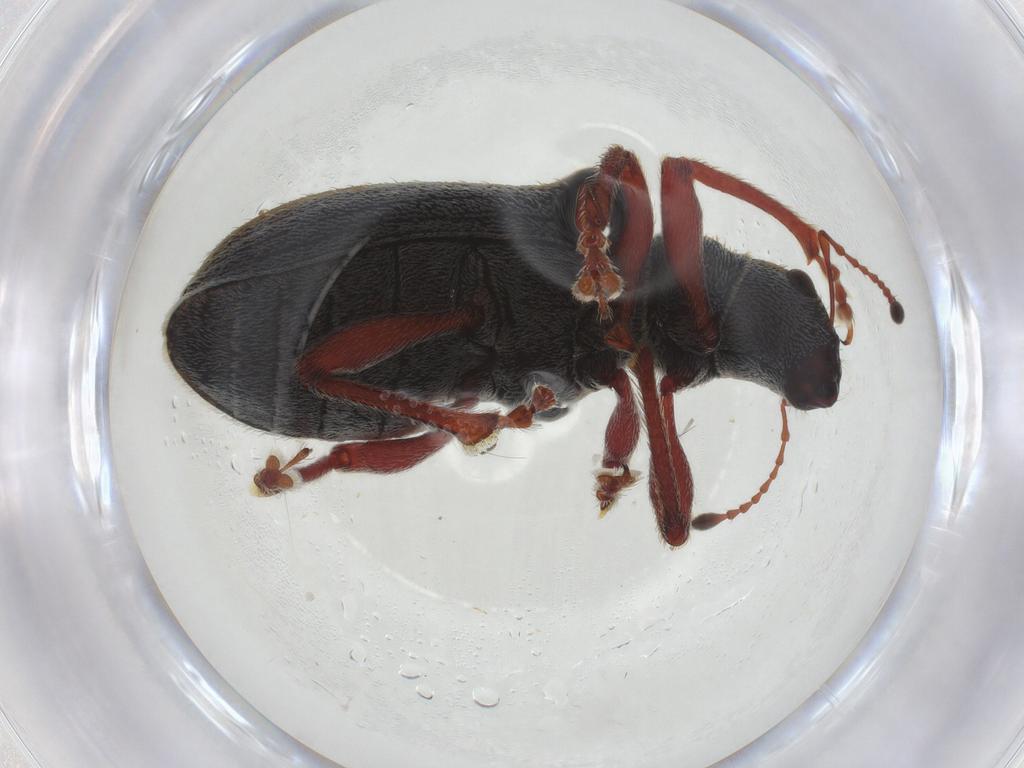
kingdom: Animalia
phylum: Arthropoda
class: Insecta
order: Coleoptera
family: Curculionidae
